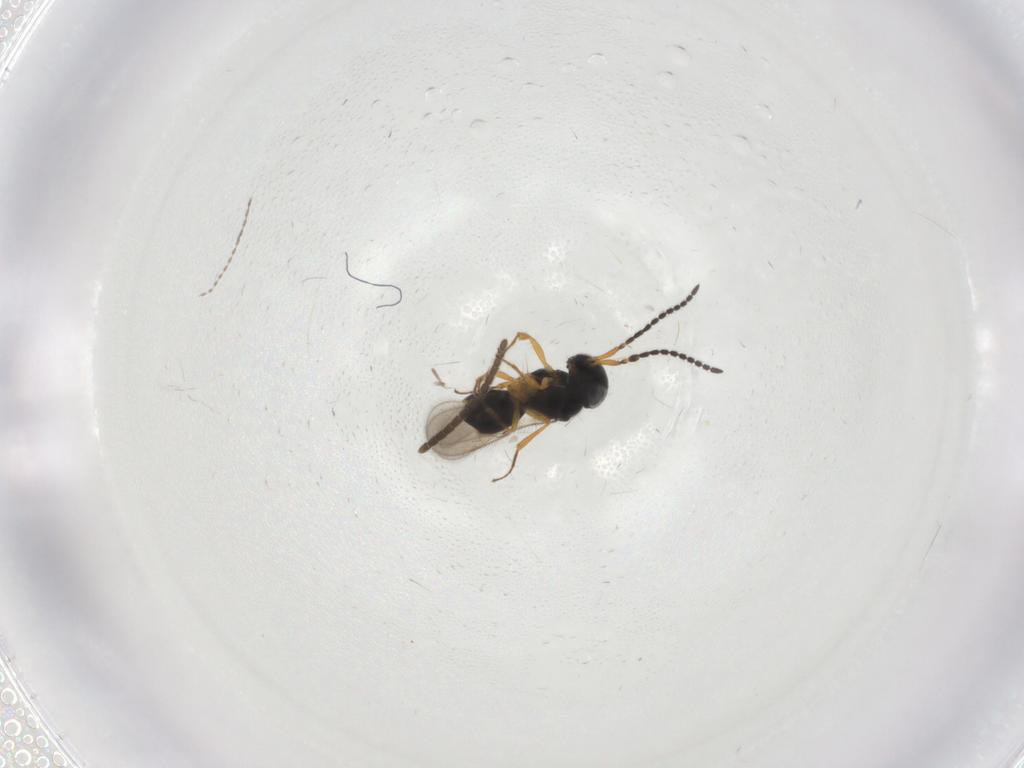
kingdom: Animalia
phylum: Arthropoda
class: Insecta
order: Hymenoptera
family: Scelionidae
